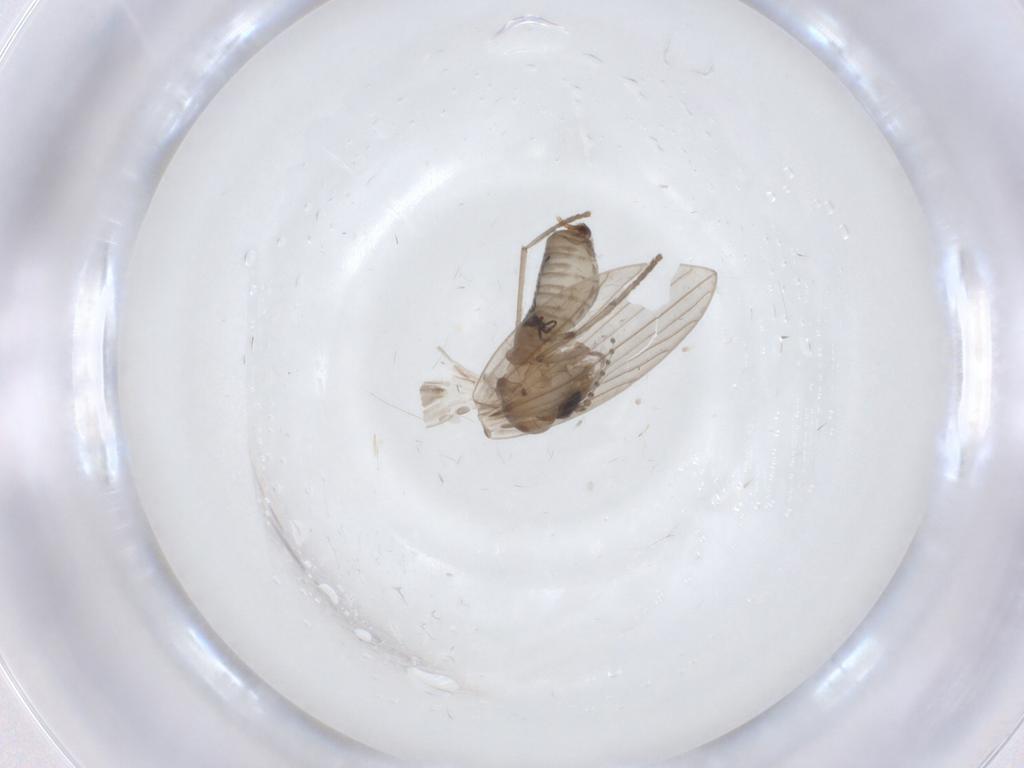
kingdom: Animalia
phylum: Arthropoda
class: Insecta
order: Diptera
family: Psychodidae
